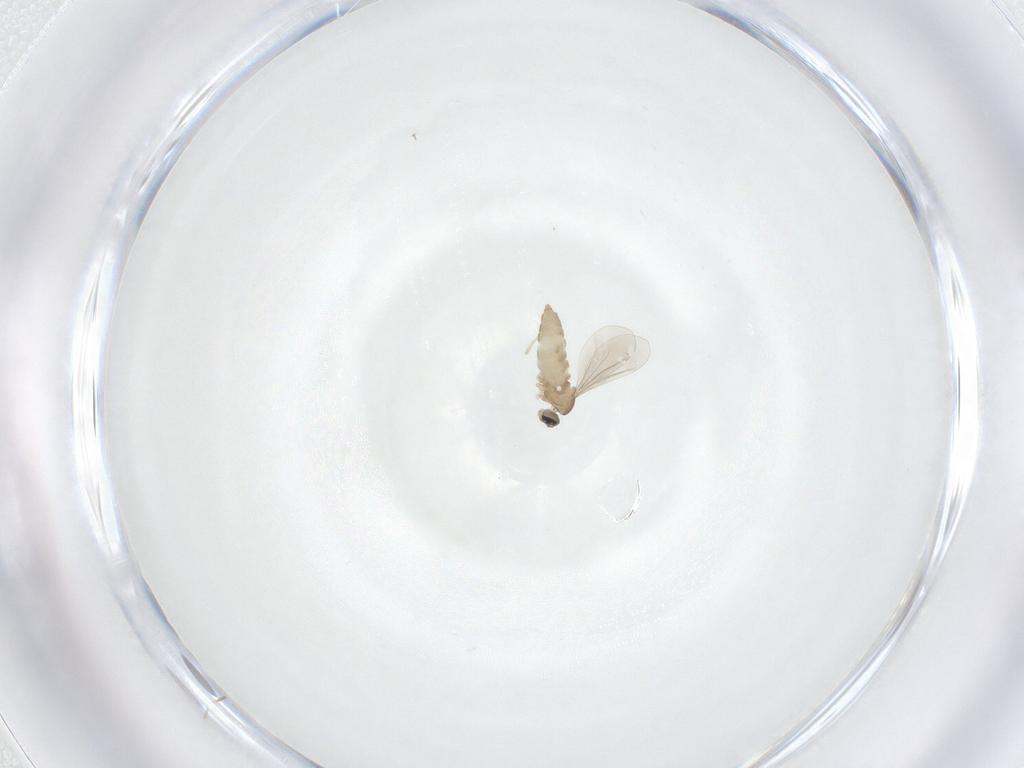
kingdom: Animalia
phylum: Arthropoda
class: Insecta
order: Diptera
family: Cecidomyiidae
